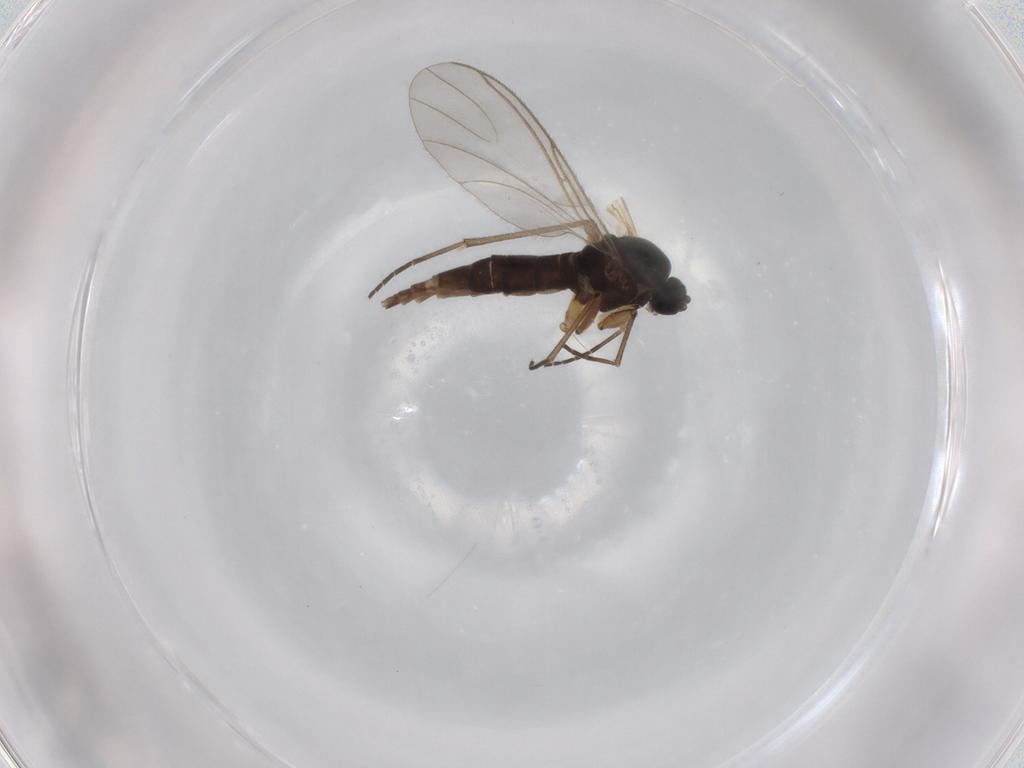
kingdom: Animalia
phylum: Arthropoda
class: Insecta
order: Diptera
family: Sciaridae
